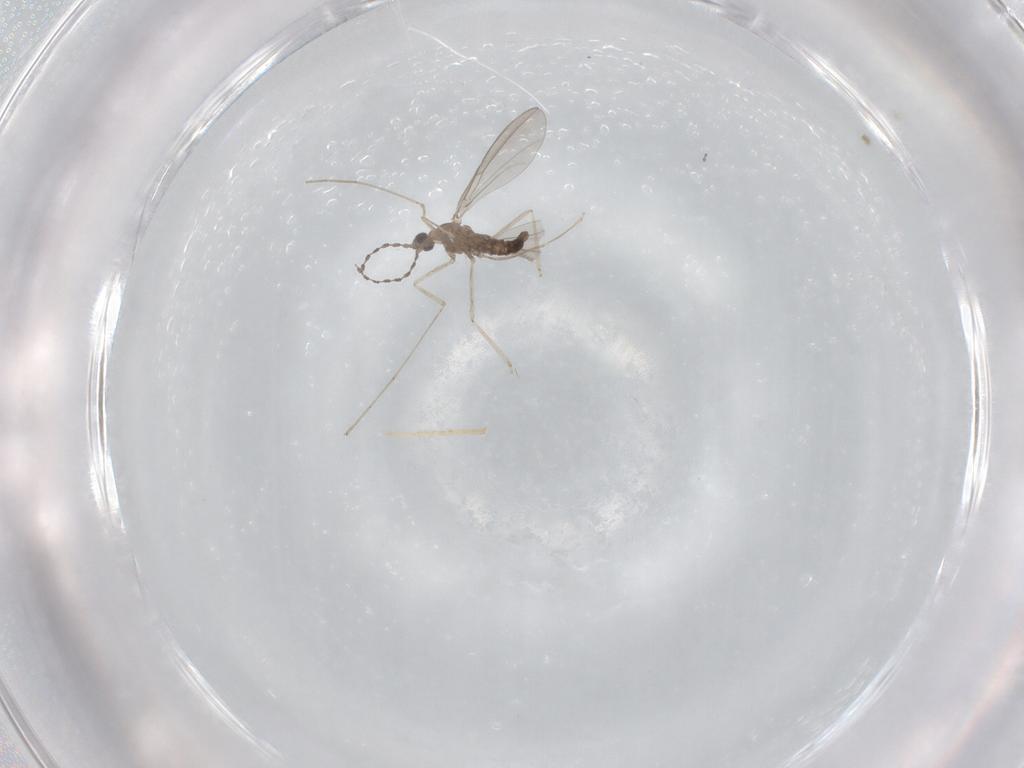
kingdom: Animalia
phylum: Arthropoda
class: Insecta
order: Diptera
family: Cecidomyiidae
